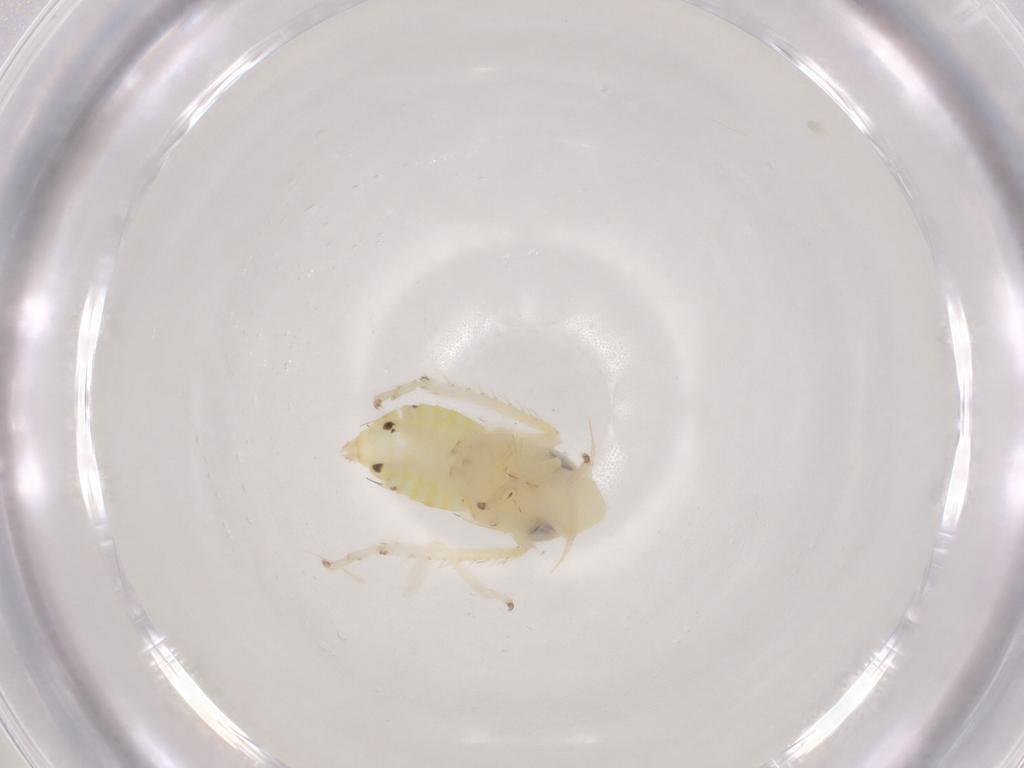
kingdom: Animalia
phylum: Arthropoda
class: Insecta
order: Hemiptera
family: Cicadellidae
